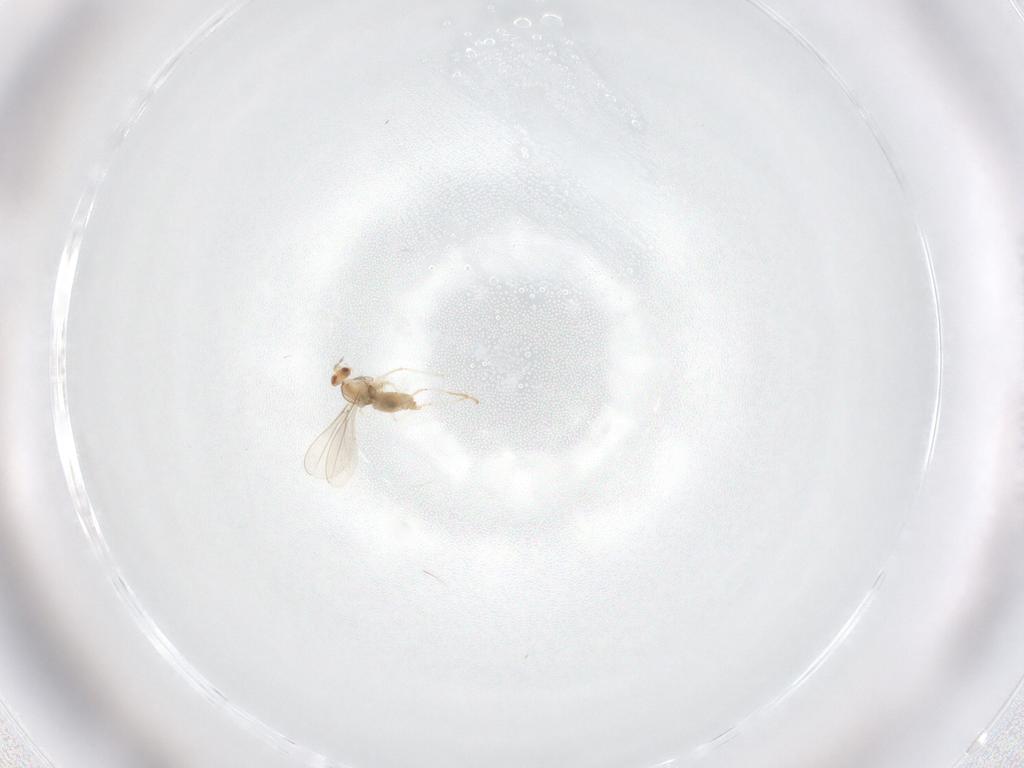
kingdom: Animalia
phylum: Arthropoda
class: Insecta
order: Diptera
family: Cecidomyiidae
